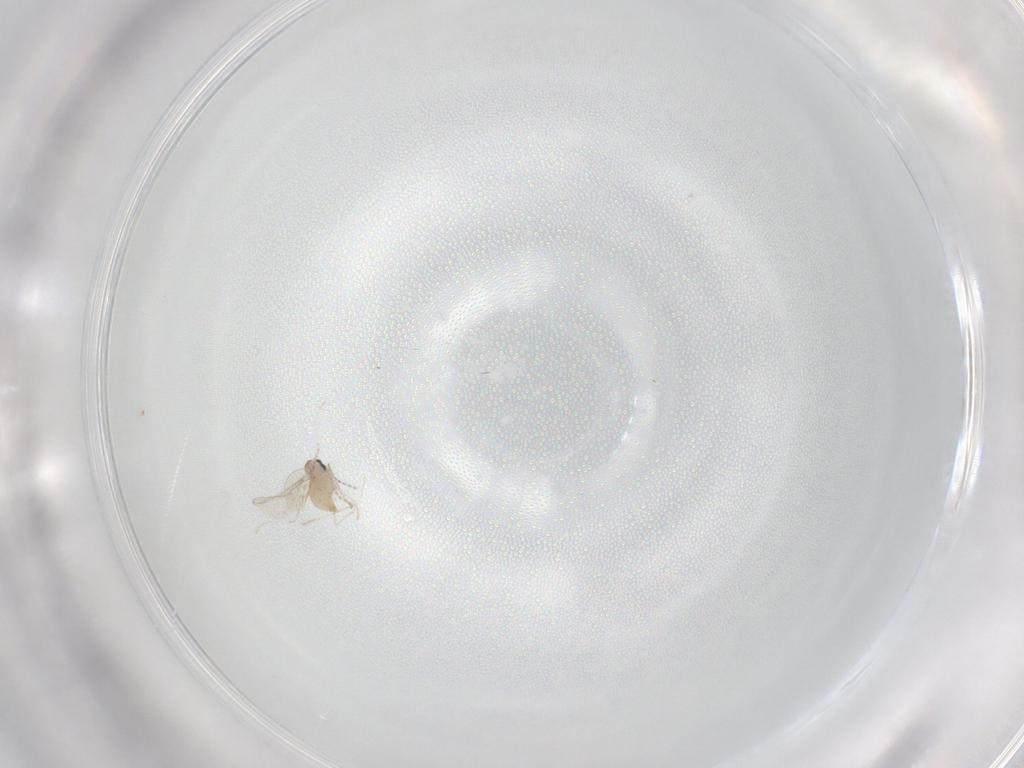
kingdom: Animalia
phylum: Arthropoda
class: Insecta
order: Diptera
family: Cecidomyiidae
